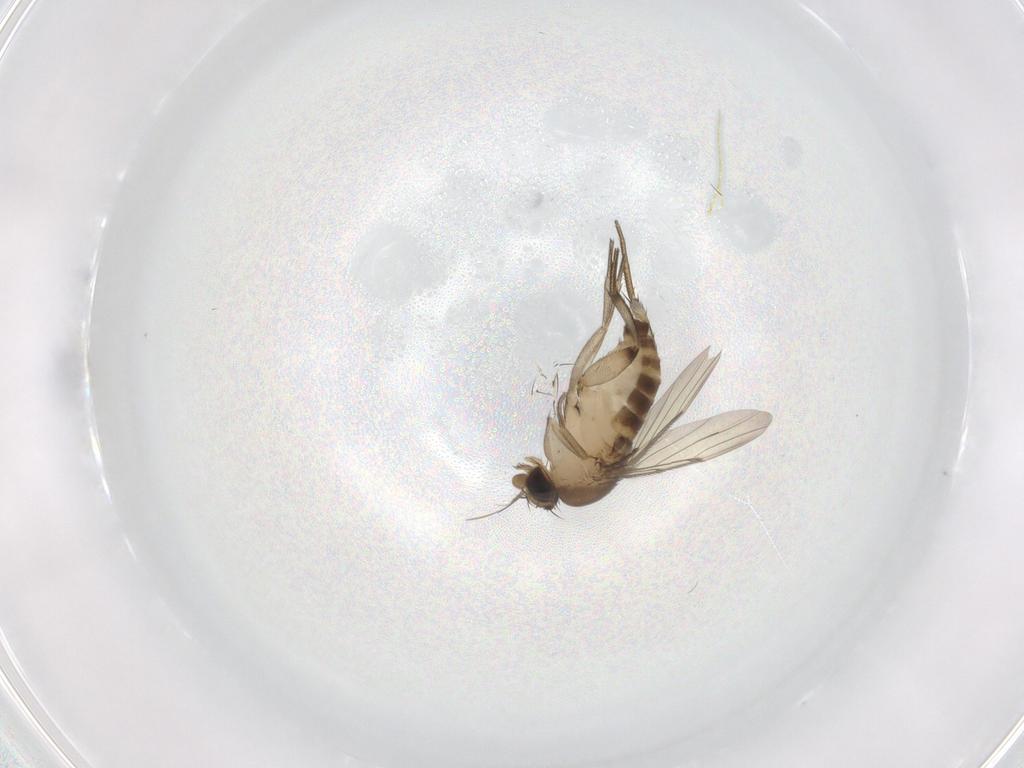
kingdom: Animalia
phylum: Arthropoda
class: Insecta
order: Diptera
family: Phoridae
